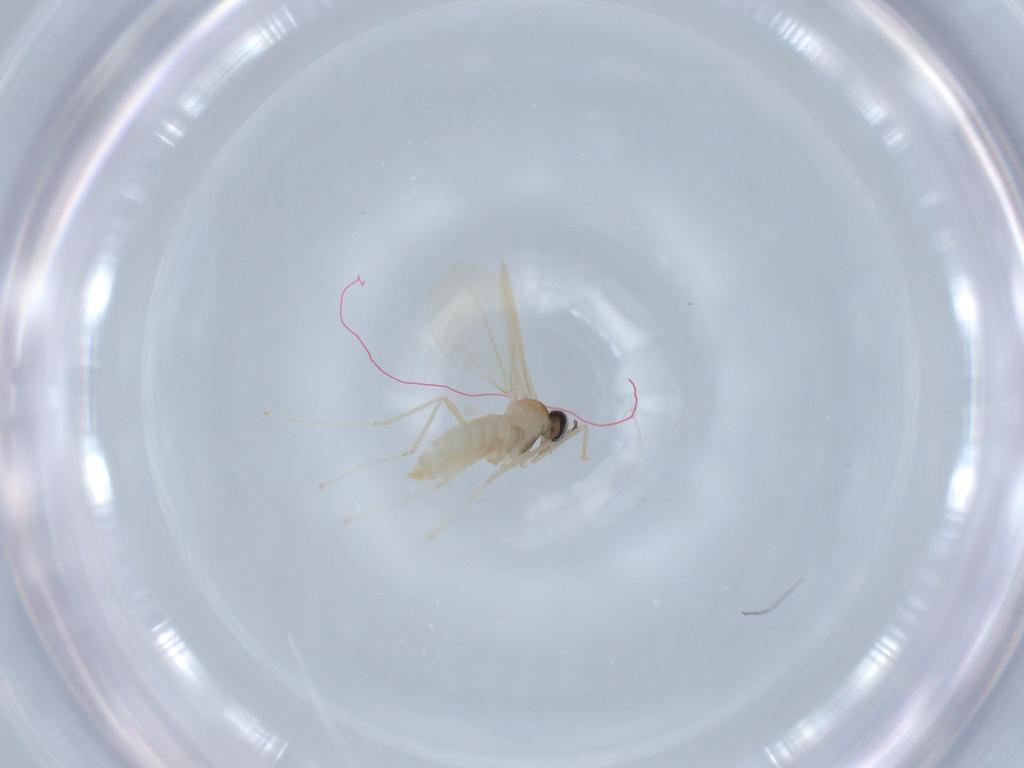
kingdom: Animalia
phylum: Arthropoda
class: Insecta
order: Diptera
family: Cecidomyiidae
